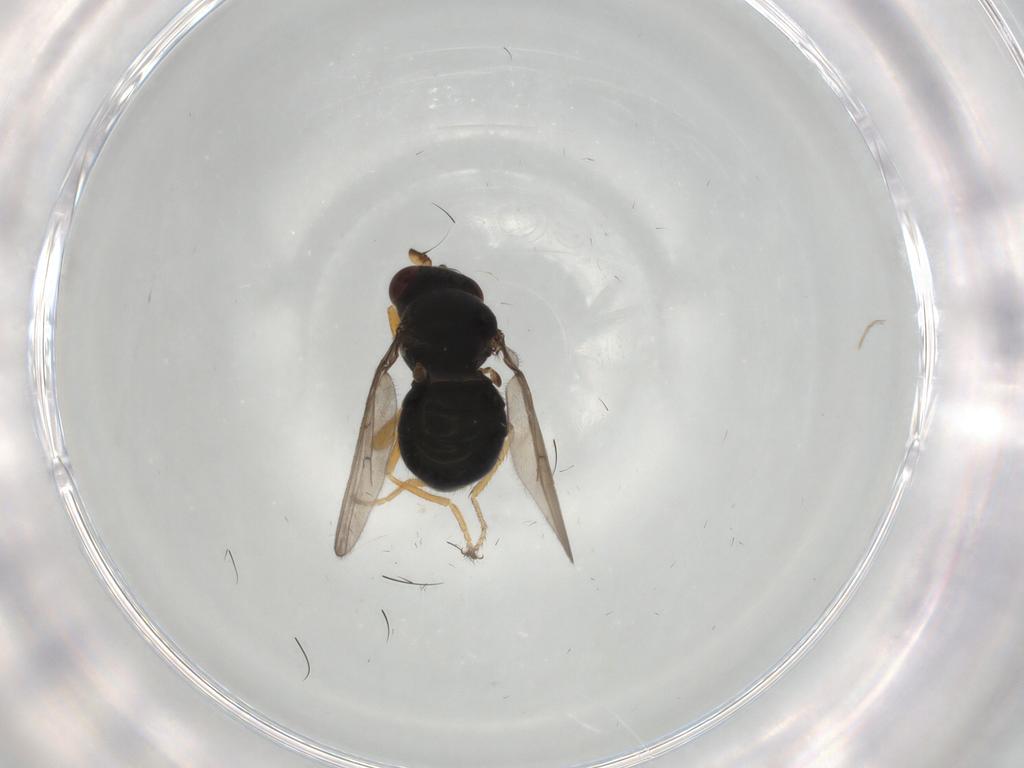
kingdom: Animalia
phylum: Arthropoda
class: Insecta
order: Diptera
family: Ephydridae
